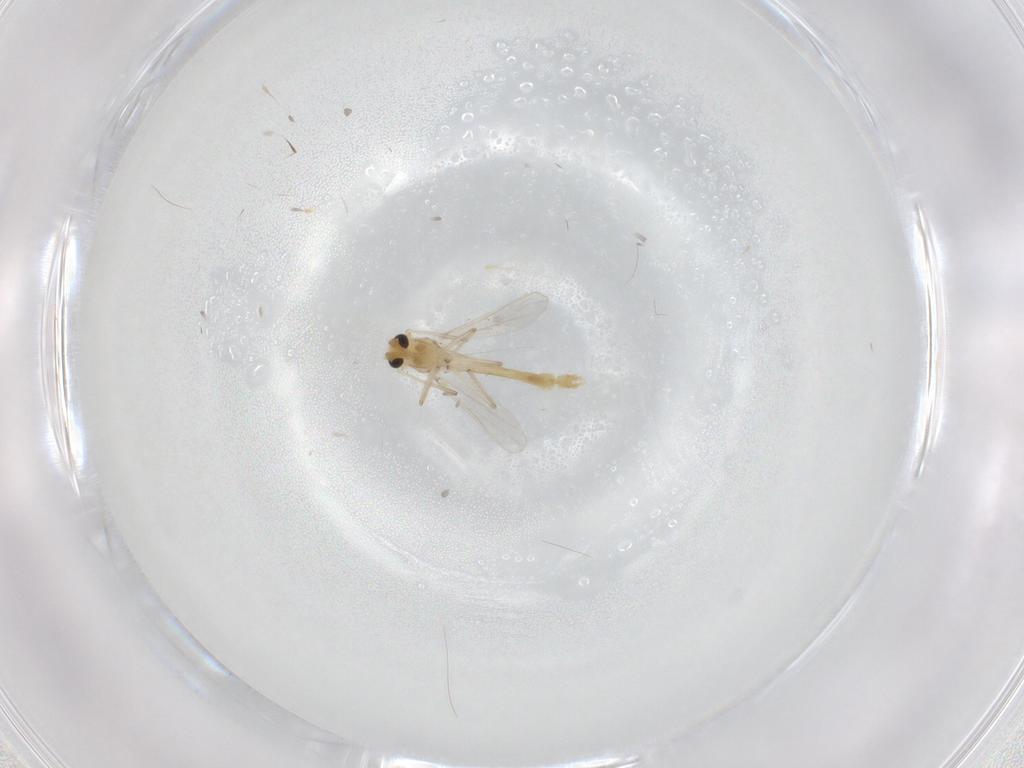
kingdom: Animalia
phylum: Arthropoda
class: Insecta
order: Diptera
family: Chironomidae
